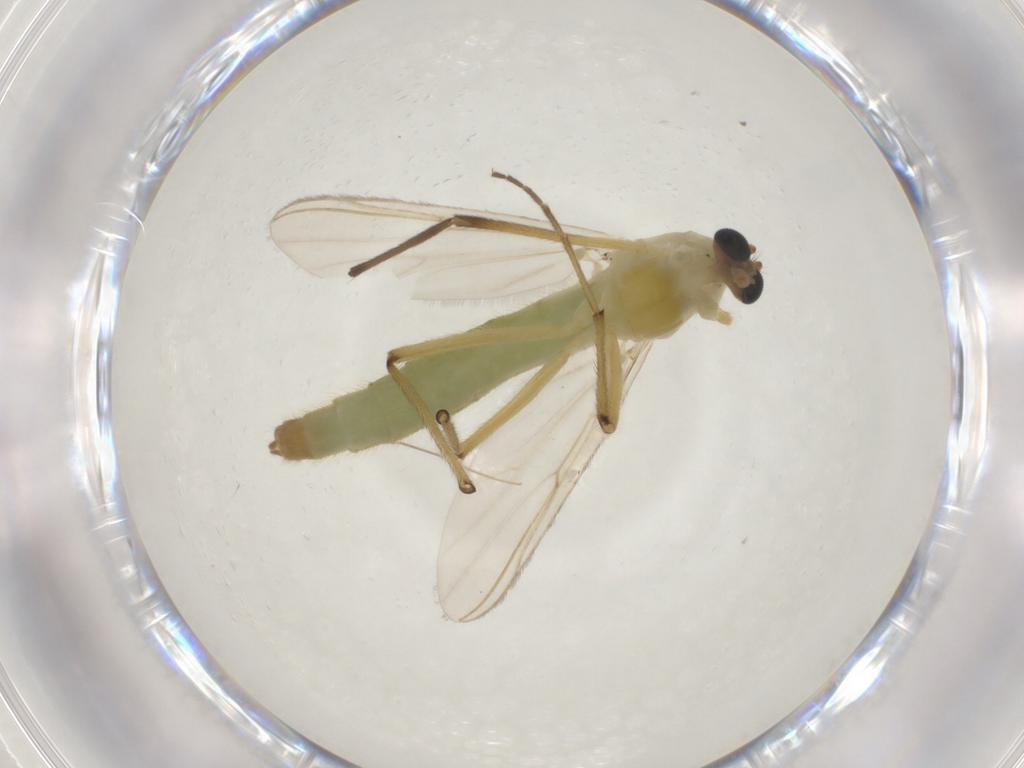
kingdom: Animalia
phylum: Arthropoda
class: Insecta
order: Diptera
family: Chironomidae
